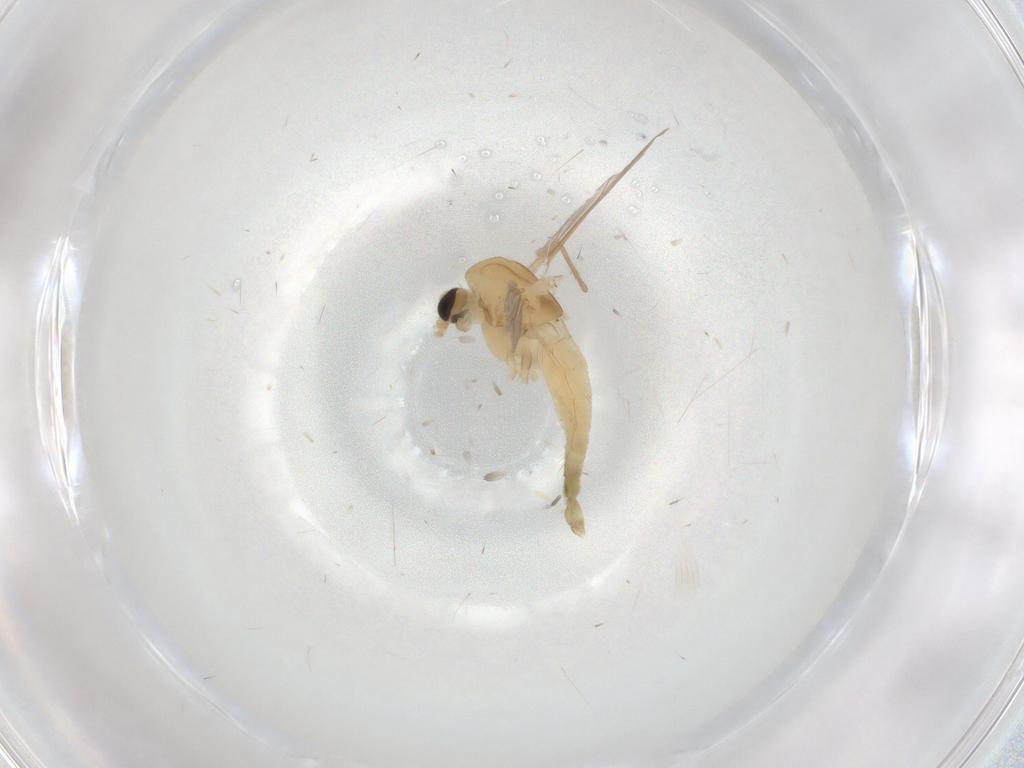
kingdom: Animalia
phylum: Arthropoda
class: Insecta
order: Diptera
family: Chironomidae
